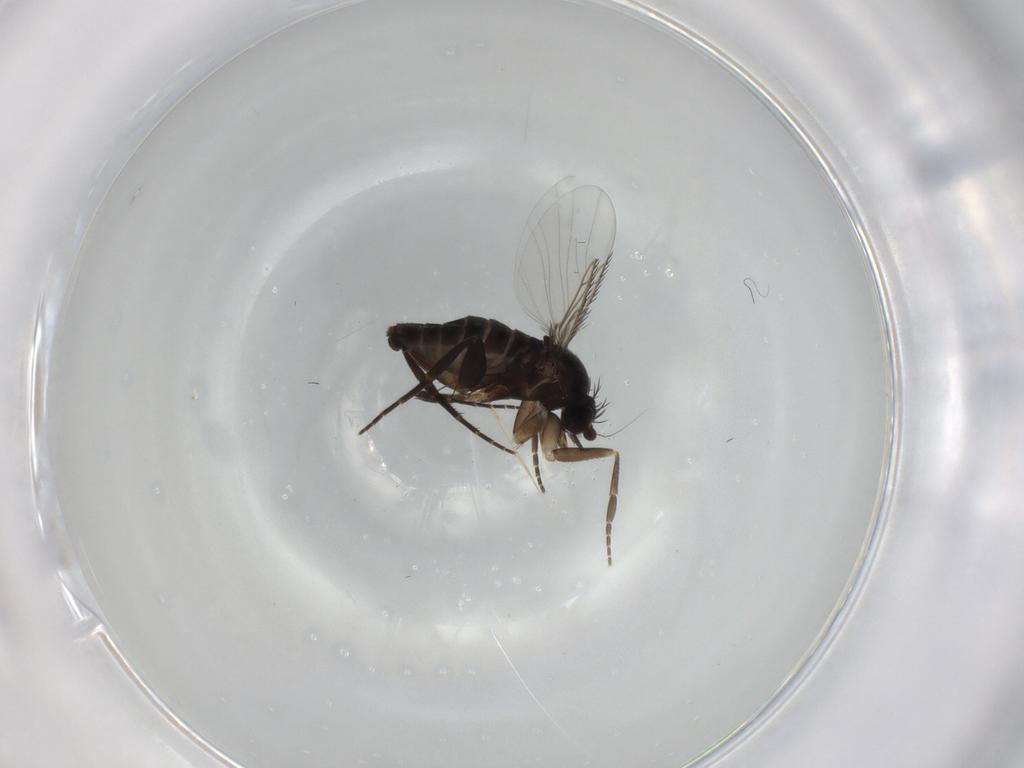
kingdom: Animalia
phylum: Arthropoda
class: Insecta
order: Diptera
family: Phoridae
